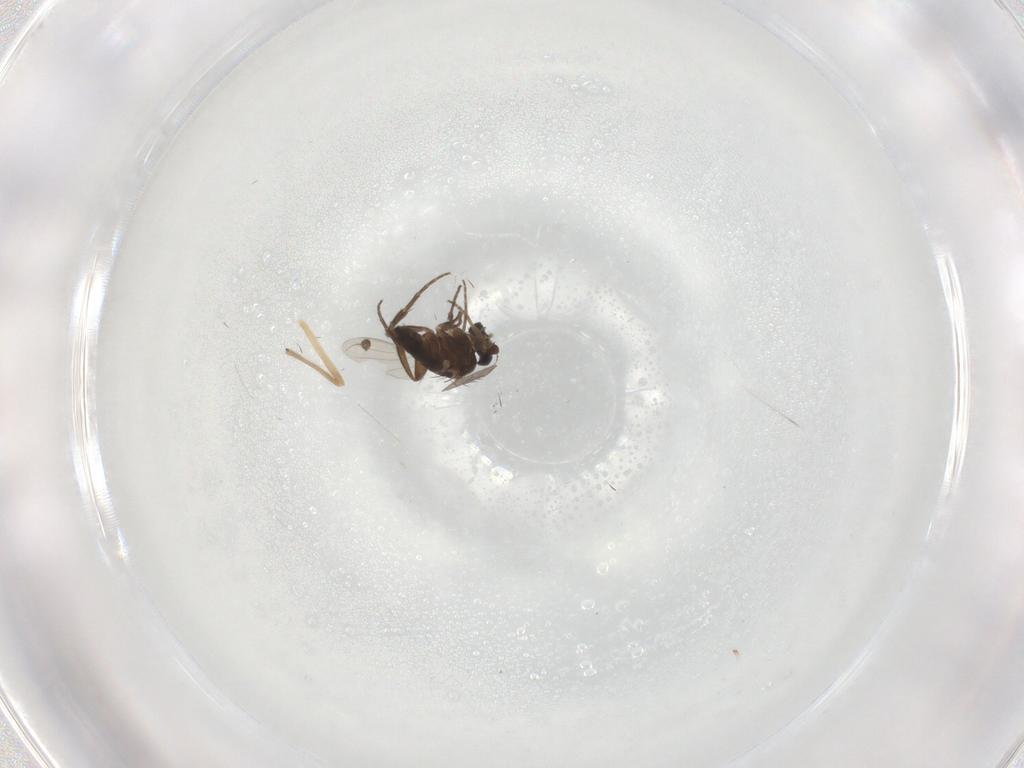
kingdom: Animalia
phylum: Arthropoda
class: Insecta
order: Diptera
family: Phoridae
